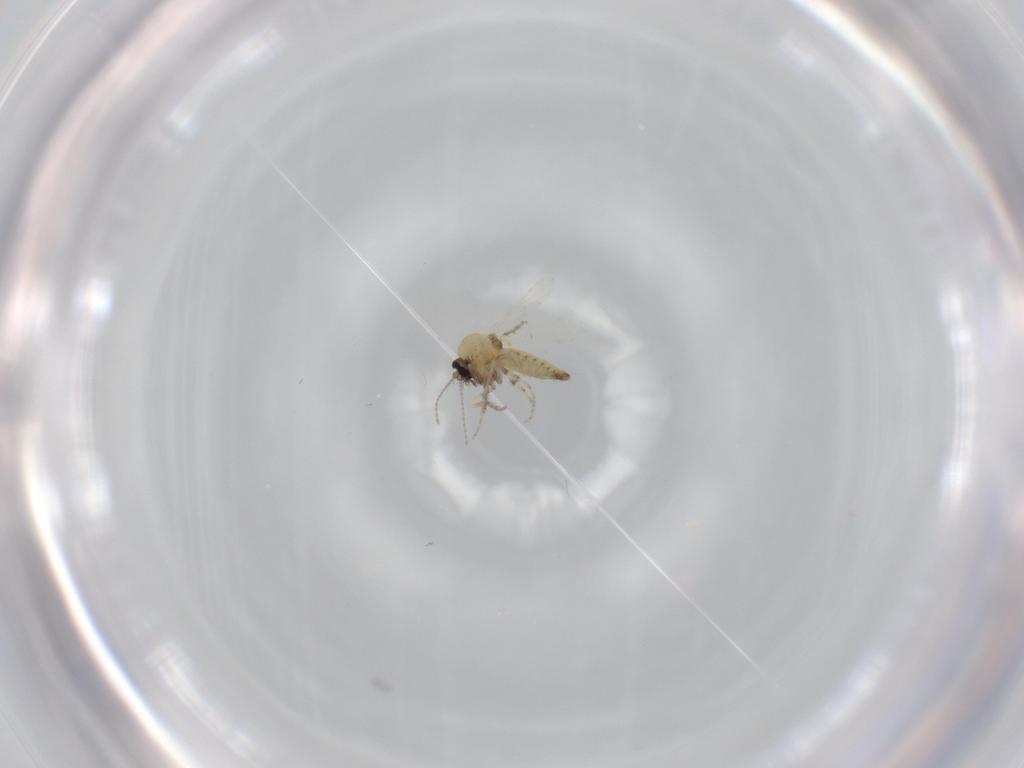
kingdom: Animalia
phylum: Arthropoda
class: Insecta
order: Diptera
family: Ceratopogonidae
